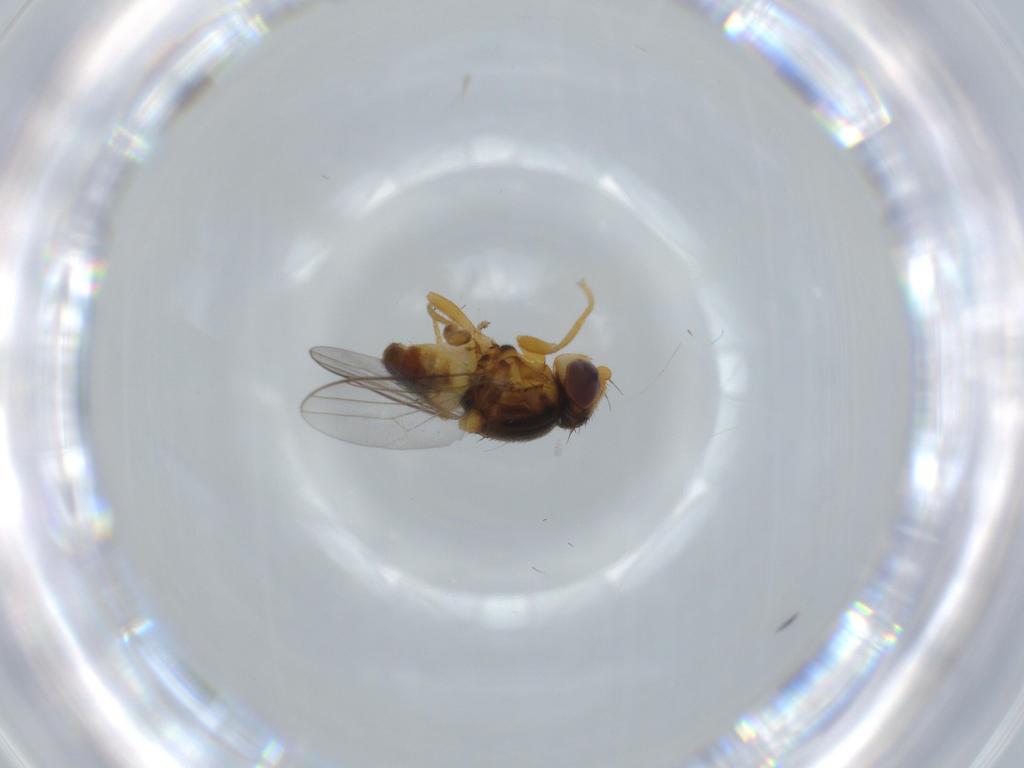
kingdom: Animalia
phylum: Arthropoda
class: Insecta
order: Diptera
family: Chloropidae
